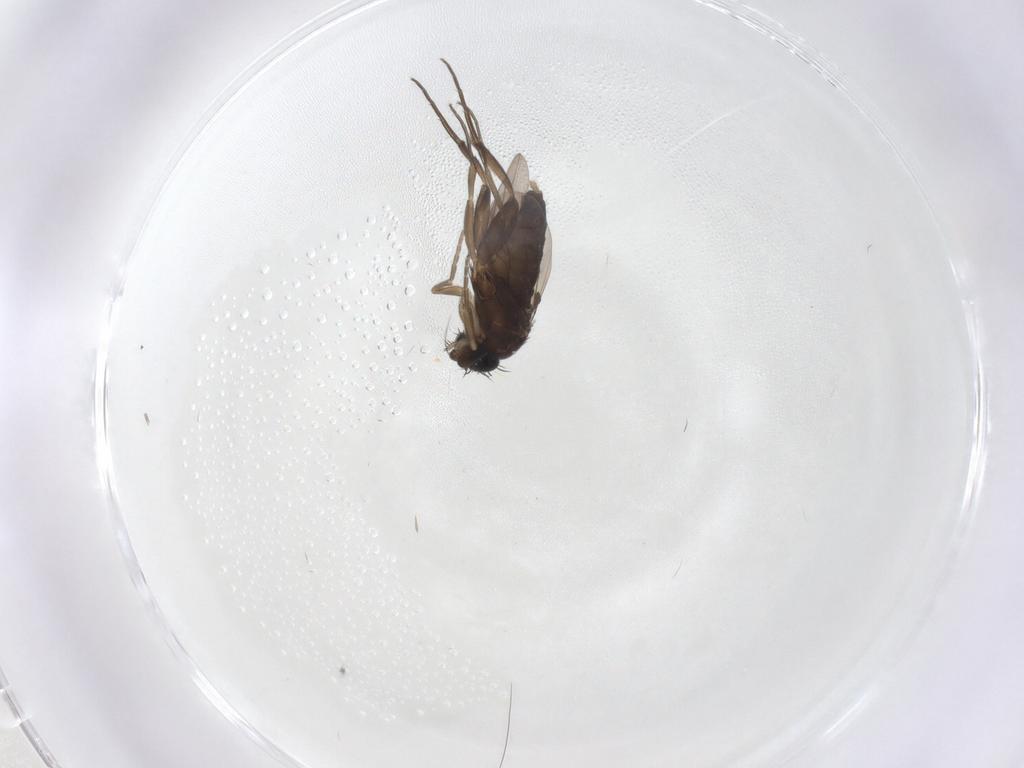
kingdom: Animalia
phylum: Arthropoda
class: Insecta
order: Diptera
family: Phoridae
